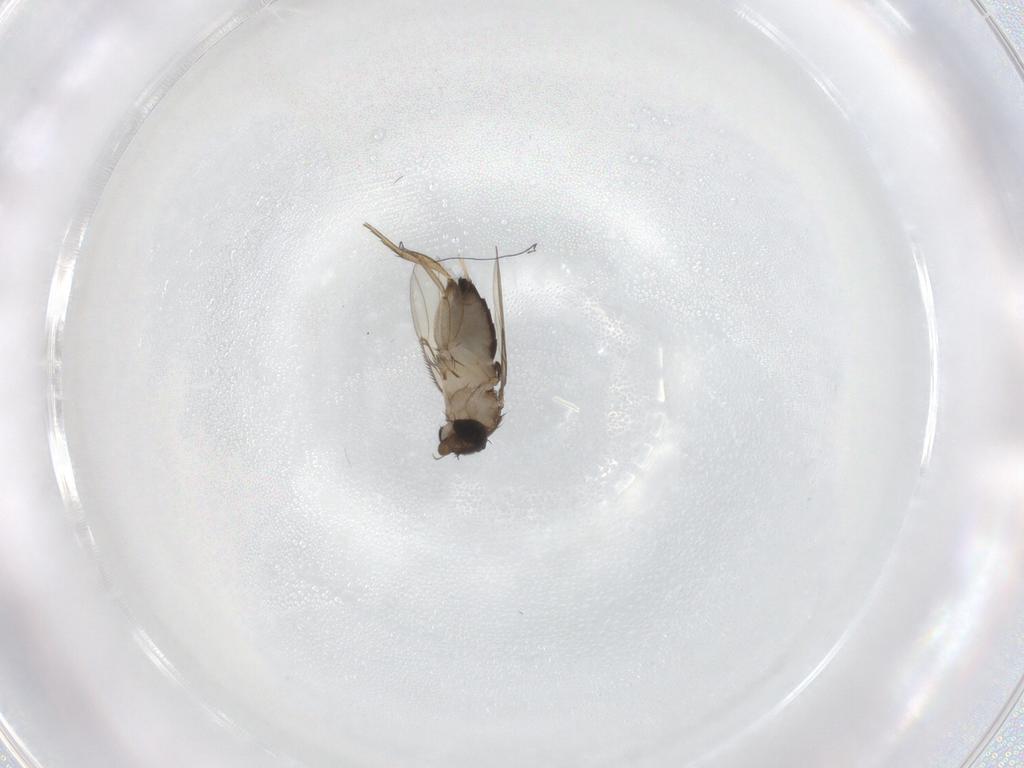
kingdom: Animalia
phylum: Arthropoda
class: Insecta
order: Diptera
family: Phoridae
